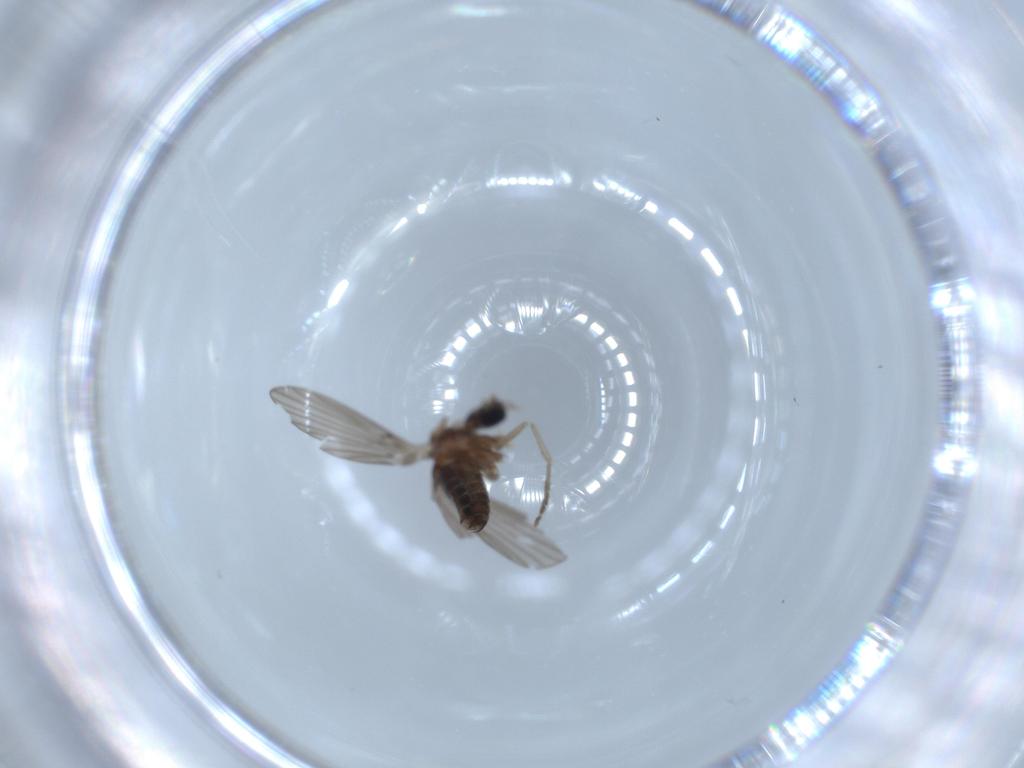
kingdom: Animalia
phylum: Arthropoda
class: Insecta
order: Diptera
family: Psychodidae
